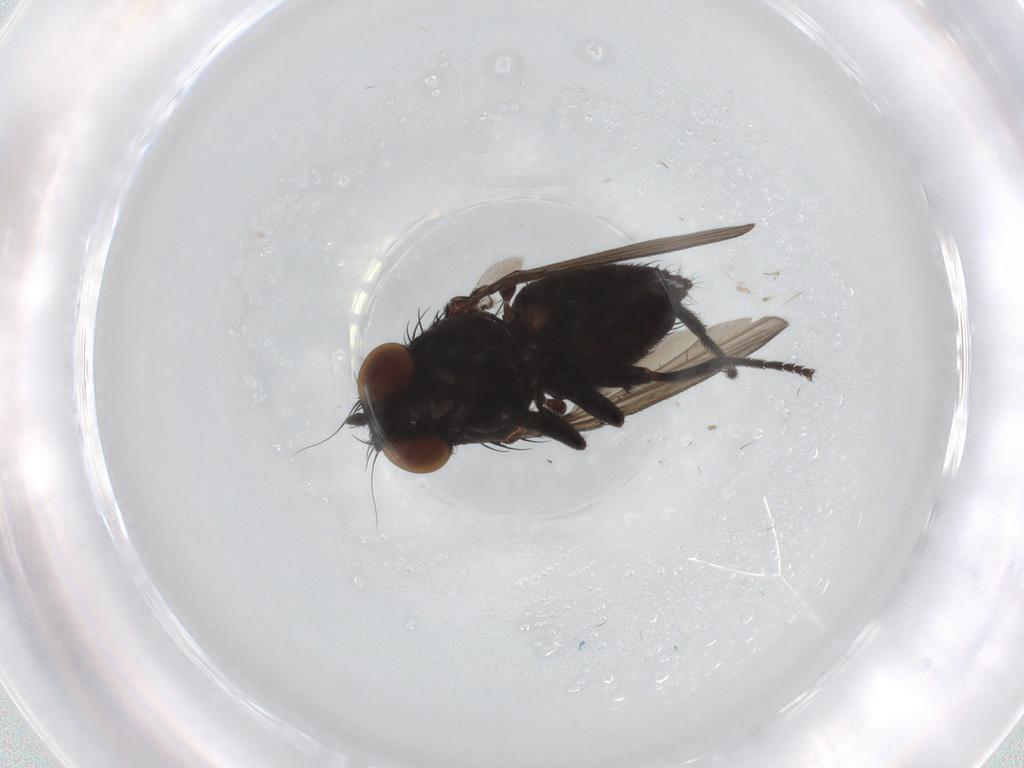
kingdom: Animalia
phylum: Arthropoda
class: Insecta
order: Diptera
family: Milichiidae
